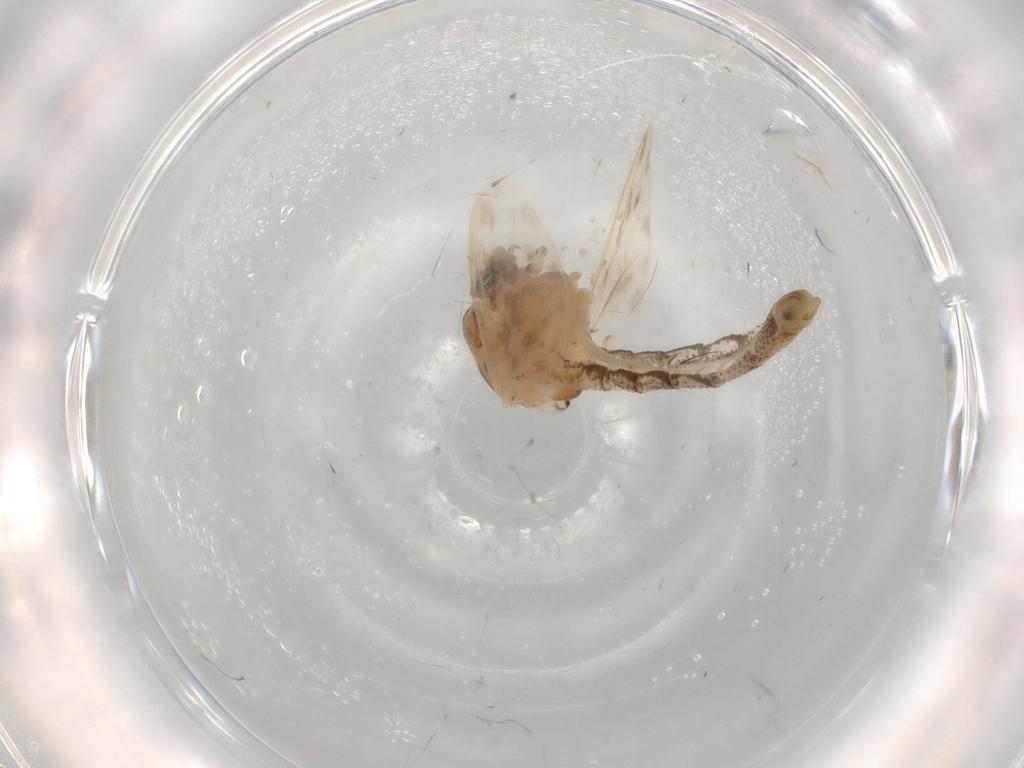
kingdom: Animalia
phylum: Arthropoda
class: Insecta
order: Diptera
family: Chaoboridae
